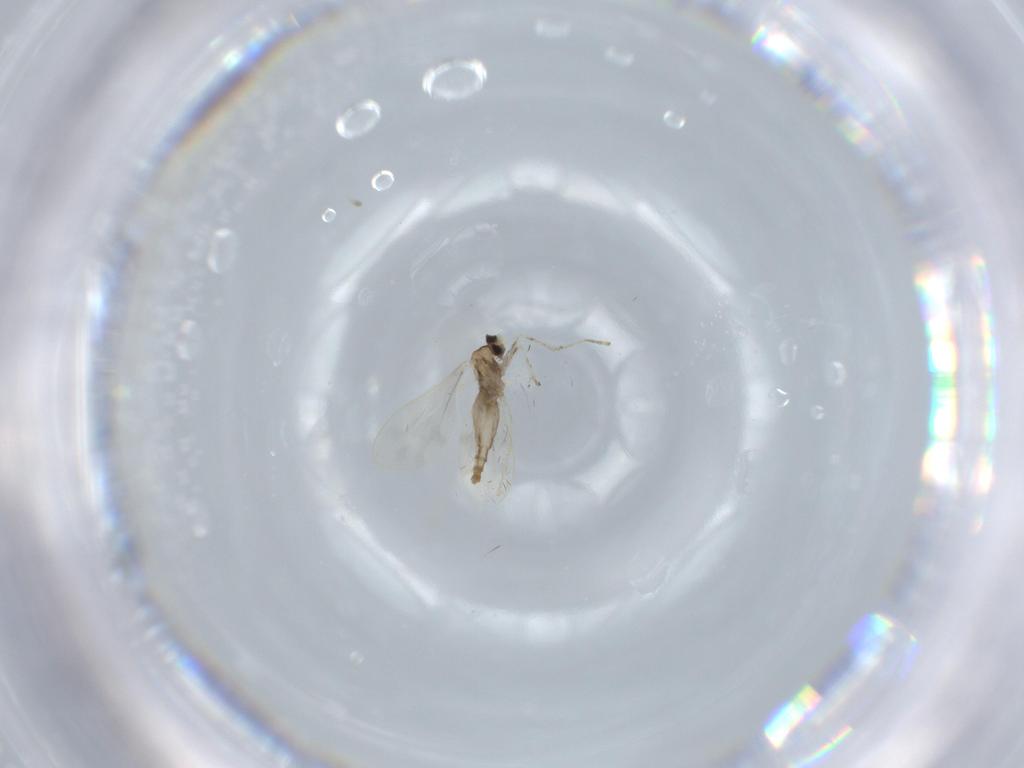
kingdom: Animalia
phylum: Arthropoda
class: Insecta
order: Diptera
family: Cecidomyiidae
